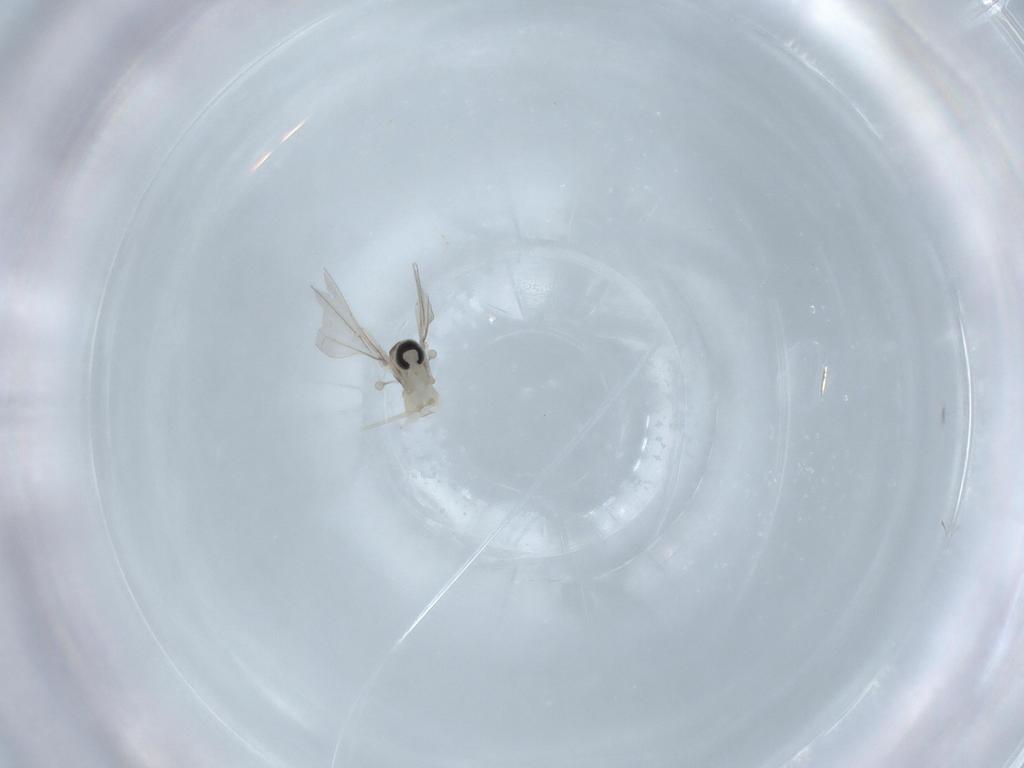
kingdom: Animalia
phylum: Arthropoda
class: Insecta
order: Diptera
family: Cecidomyiidae
